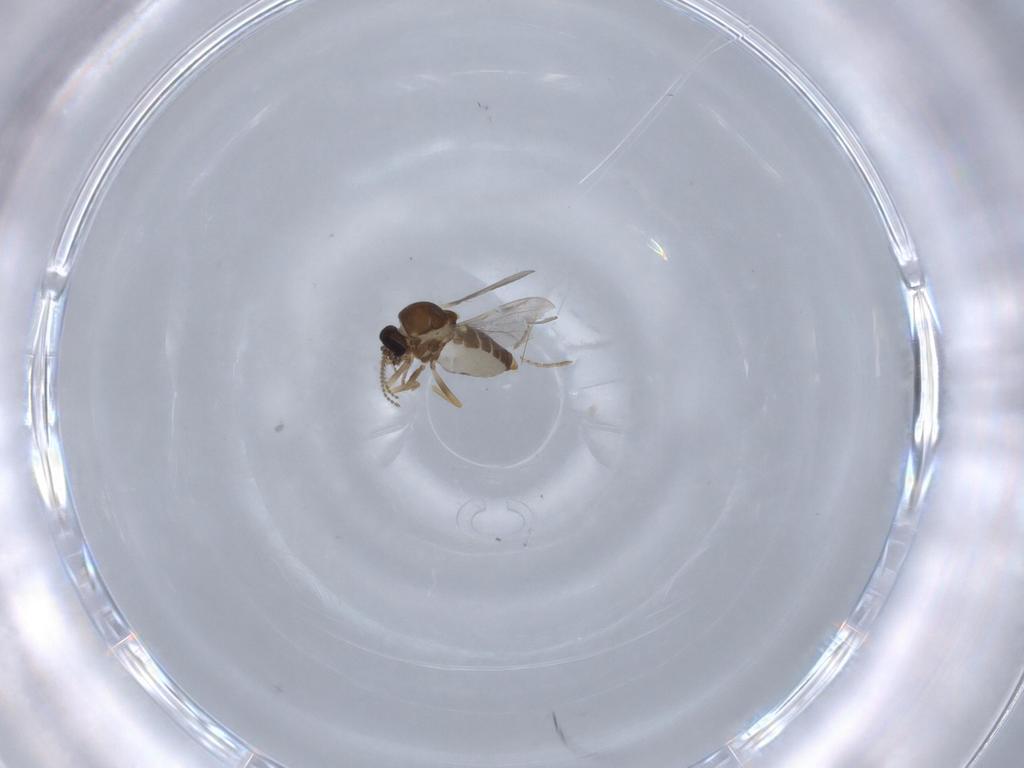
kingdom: Animalia
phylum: Arthropoda
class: Insecta
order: Diptera
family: Ceratopogonidae
